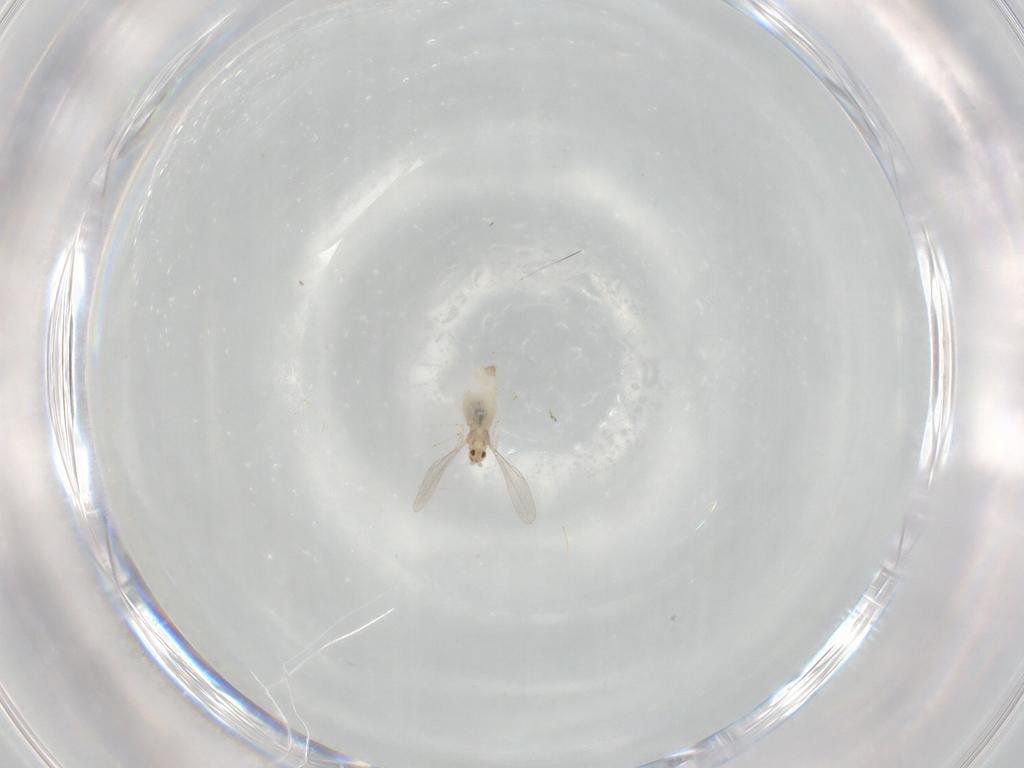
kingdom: Animalia
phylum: Arthropoda
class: Insecta
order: Diptera
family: Cecidomyiidae
